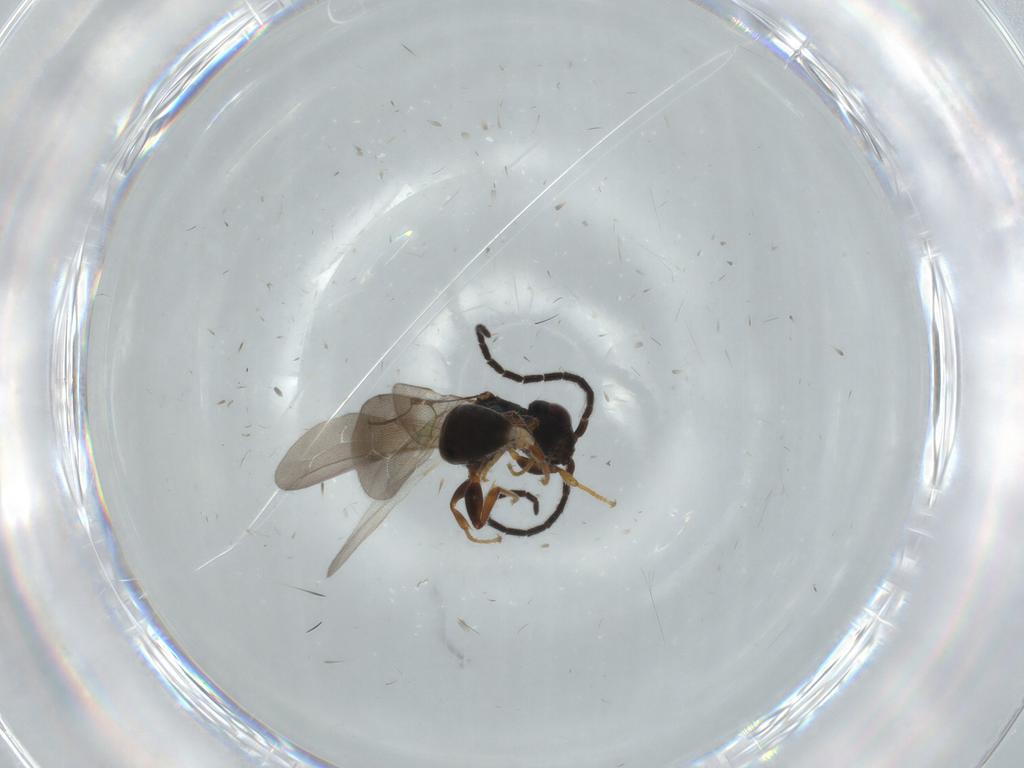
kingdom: Animalia
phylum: Arthropoda
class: Insecta
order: Hymenoptera
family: Bethylidae
